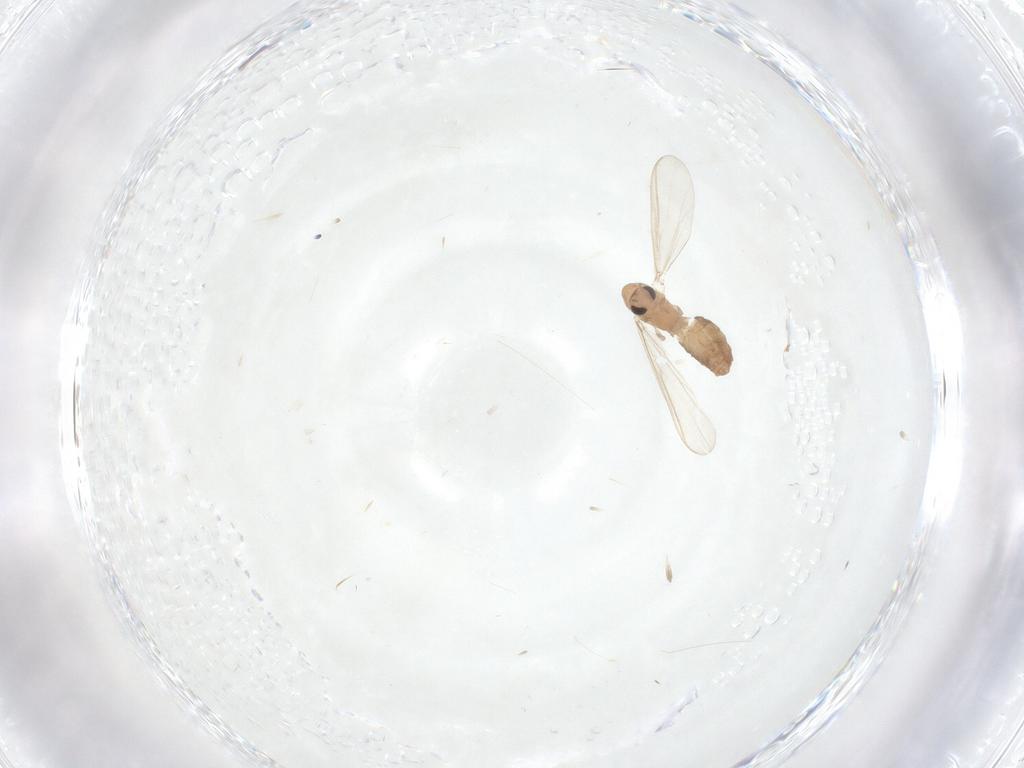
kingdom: Animalia
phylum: Arthropoda
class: Insecta
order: Diptera
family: Chironomidae
